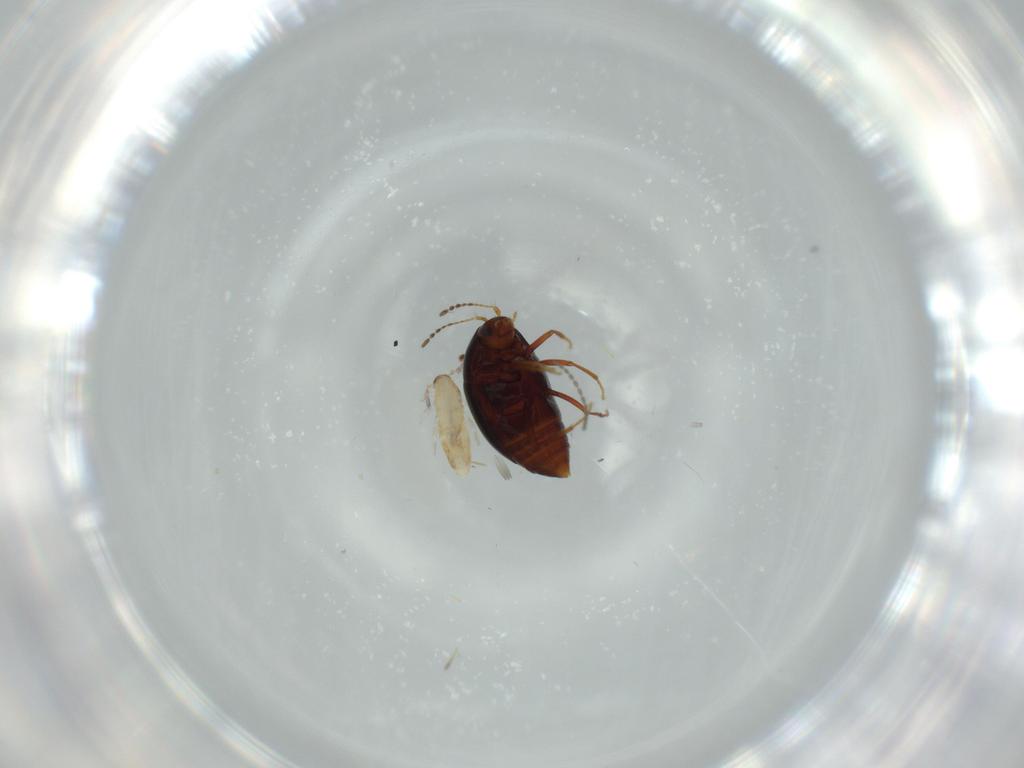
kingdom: Animalia
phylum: Arthropoda
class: Insecta
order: Coleoptera
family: Staphylinidae
